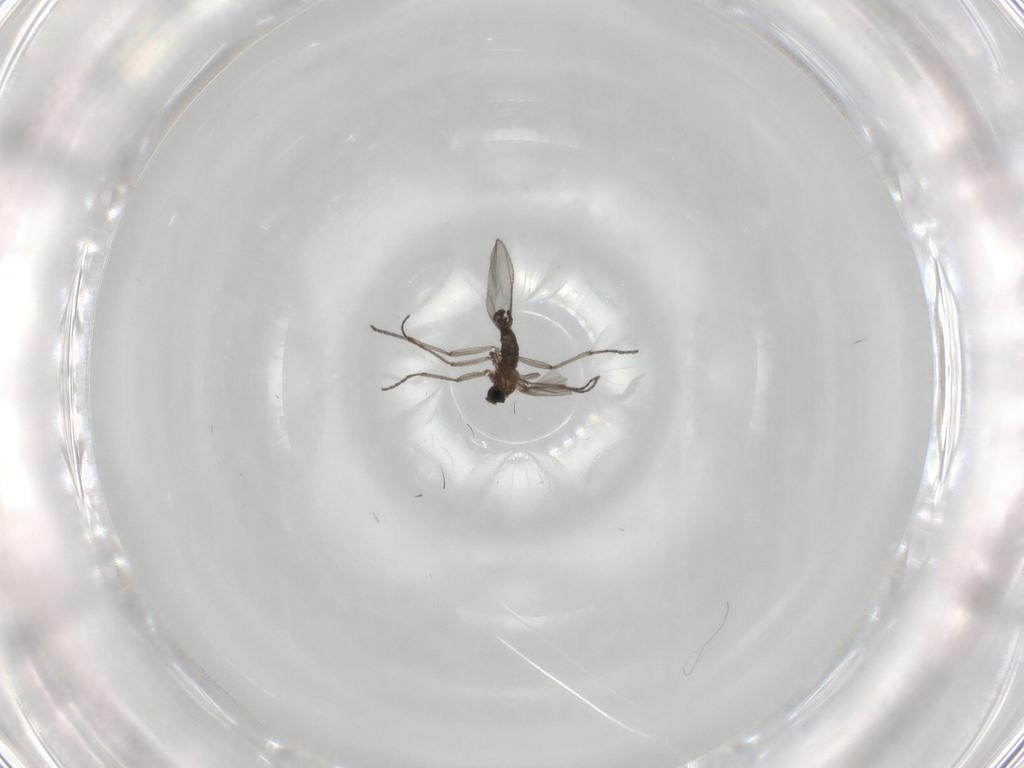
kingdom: Animalia
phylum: Arthropoda
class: Insecta
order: Diptera
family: Sciaridae
